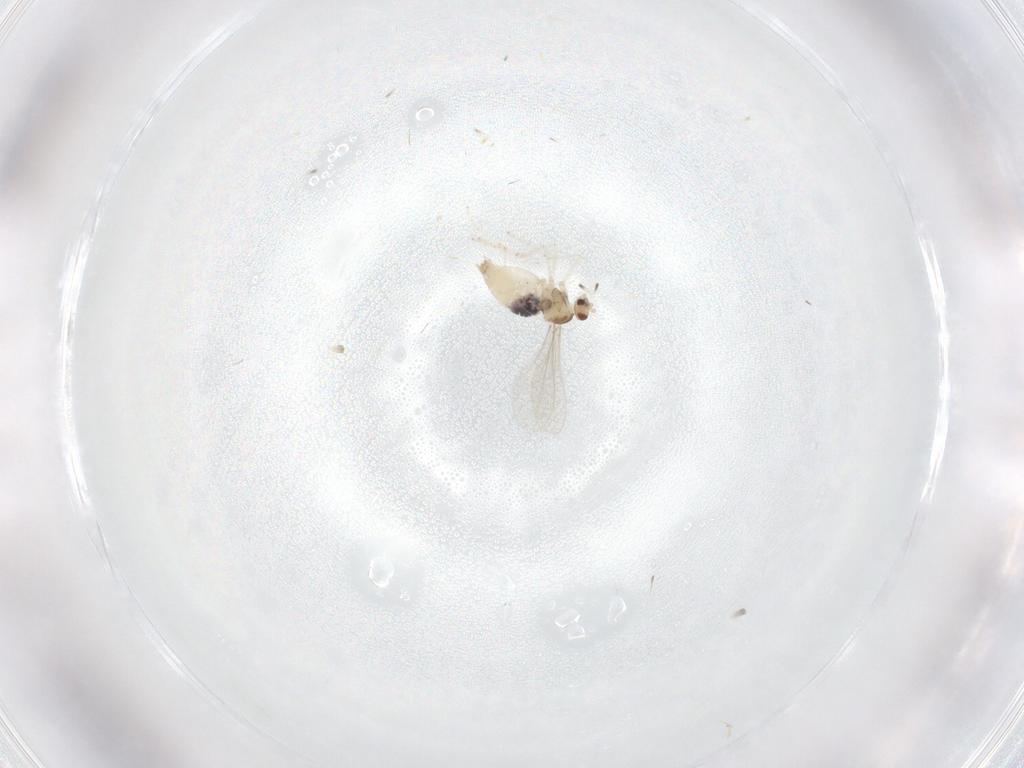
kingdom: Animalia
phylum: Arthropoda
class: Insecta
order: Diptera
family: Cecidomyiidae
